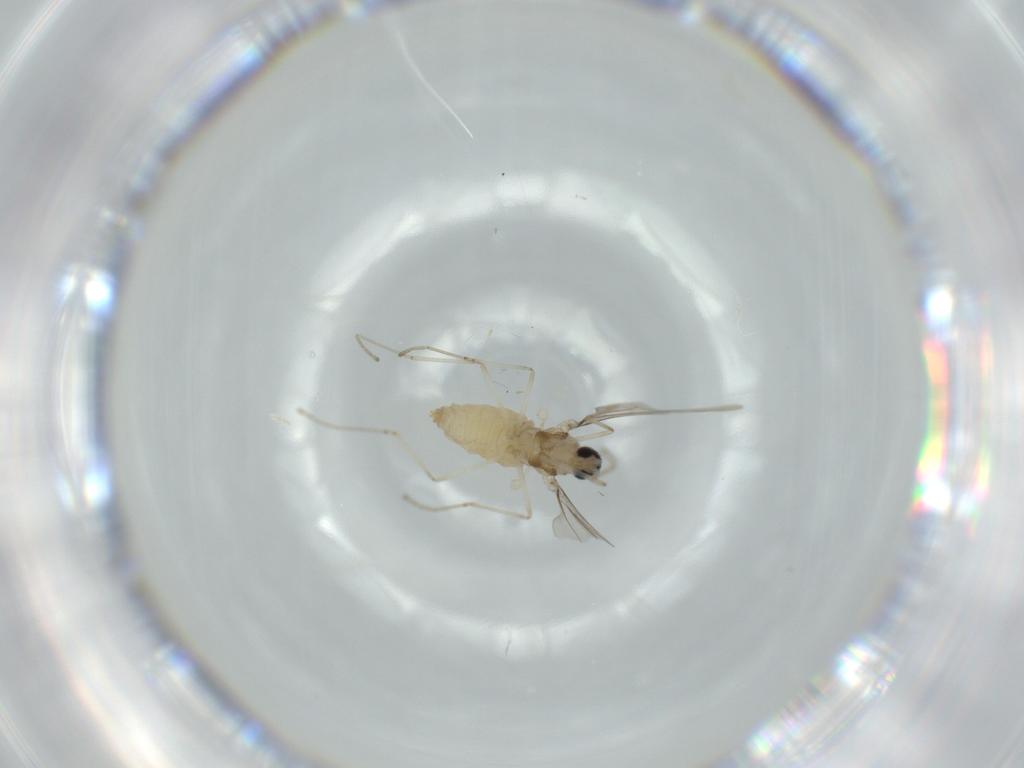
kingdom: Animalia
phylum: Arthropoda
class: Insecta
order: Diptera
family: Cecidomyiidae
